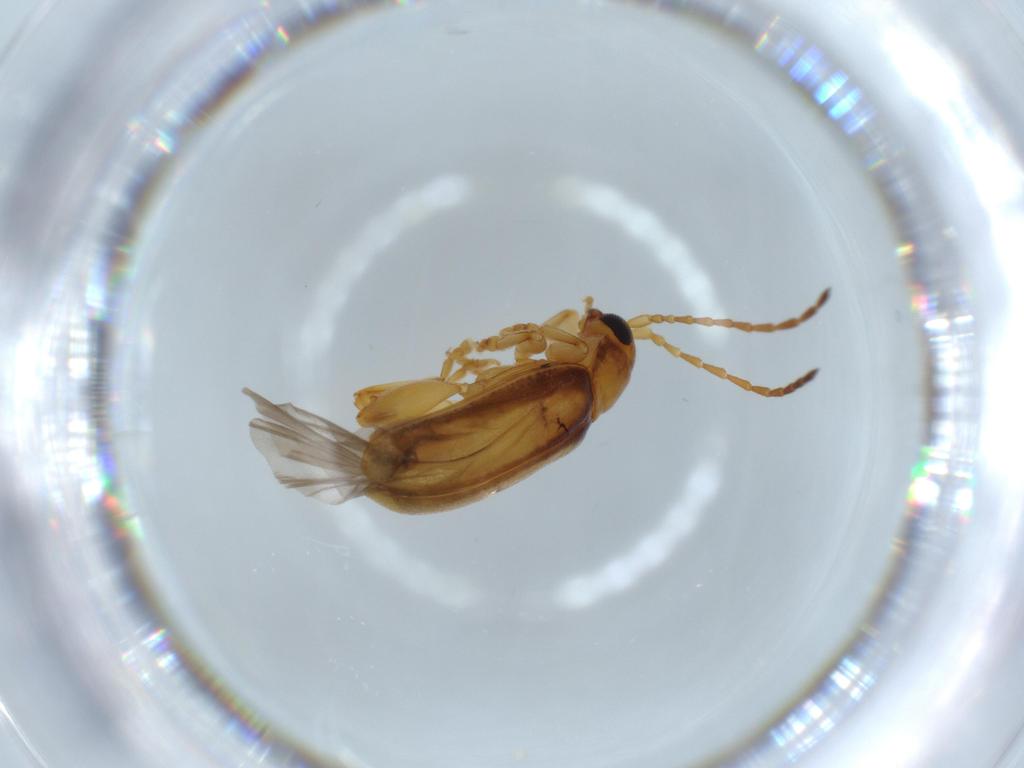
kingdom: Animalia
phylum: Arthropoda
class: Insecta
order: Coleoptera
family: Chrysomelidae
